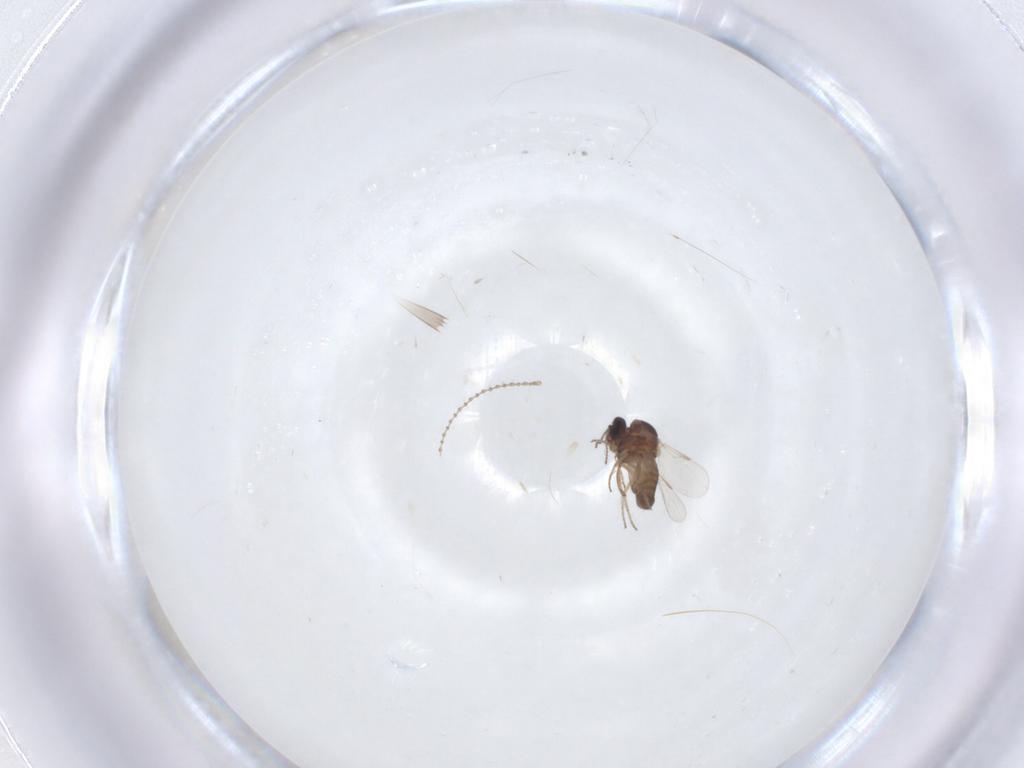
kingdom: Animalia
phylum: Arthropoda
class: Insecta
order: Diptera
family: Ceratopogonidae
